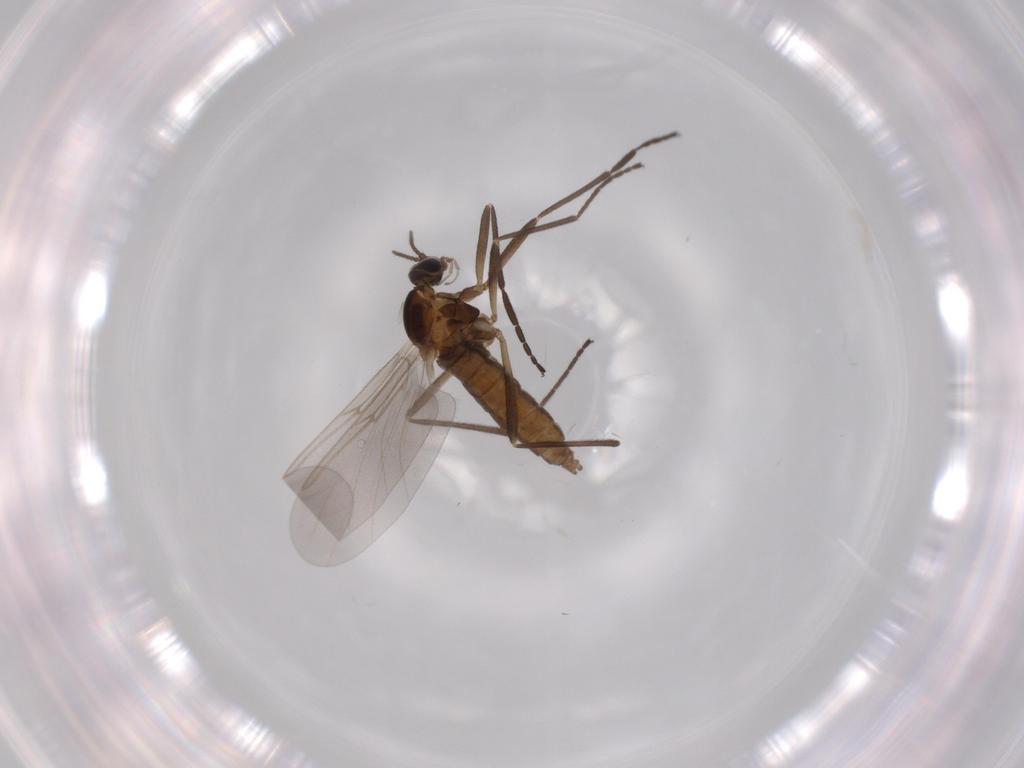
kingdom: Animalia
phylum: Arthropoda
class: Insecta
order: Diptera
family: Cecidomyiidae
